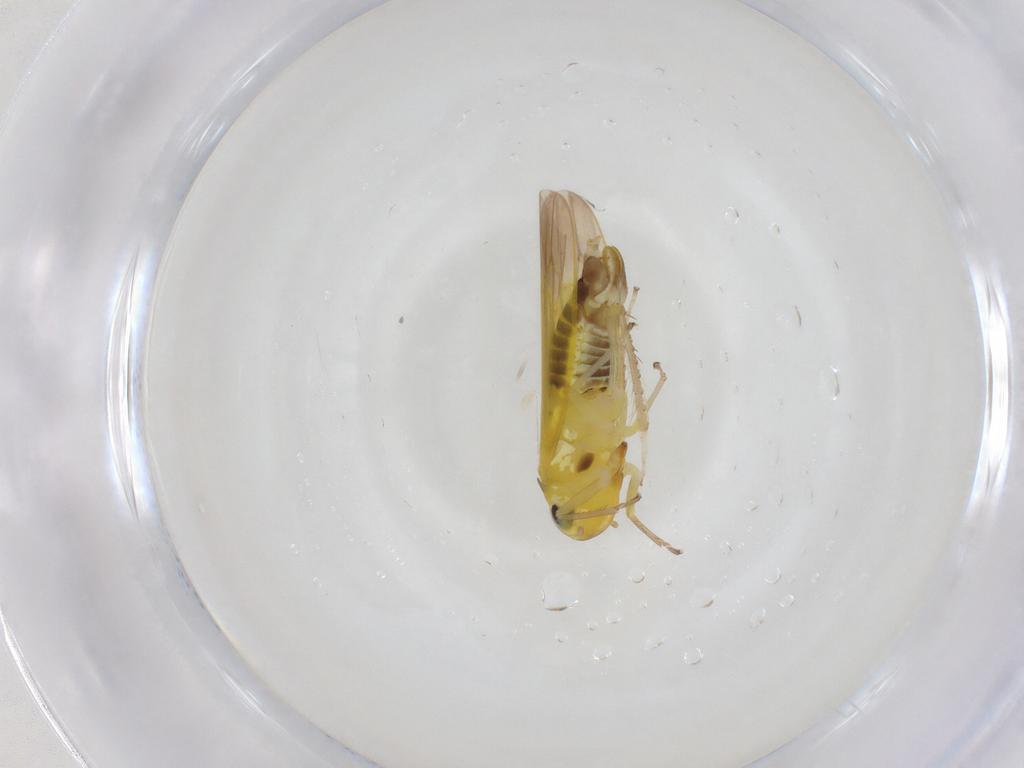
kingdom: Animalia
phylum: Arthropoda
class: Insecta
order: Hemiptera
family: Cicadellidae
